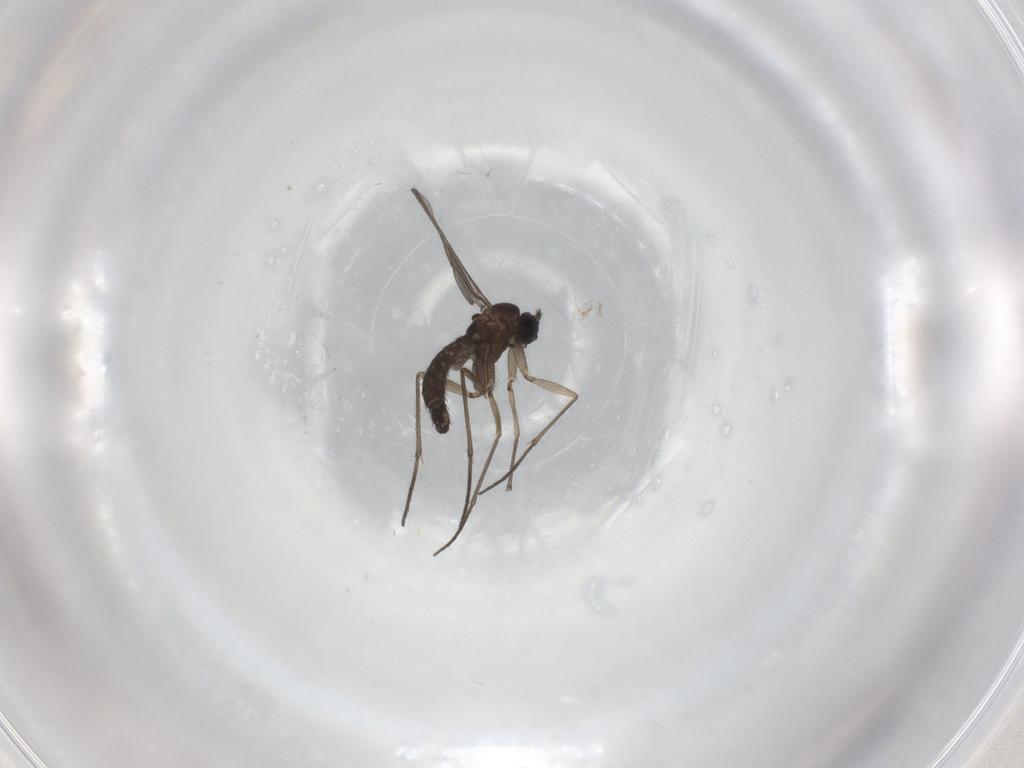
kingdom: Animalia
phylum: Arthropoda
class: Insecta
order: Diptera
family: Sciaridae
